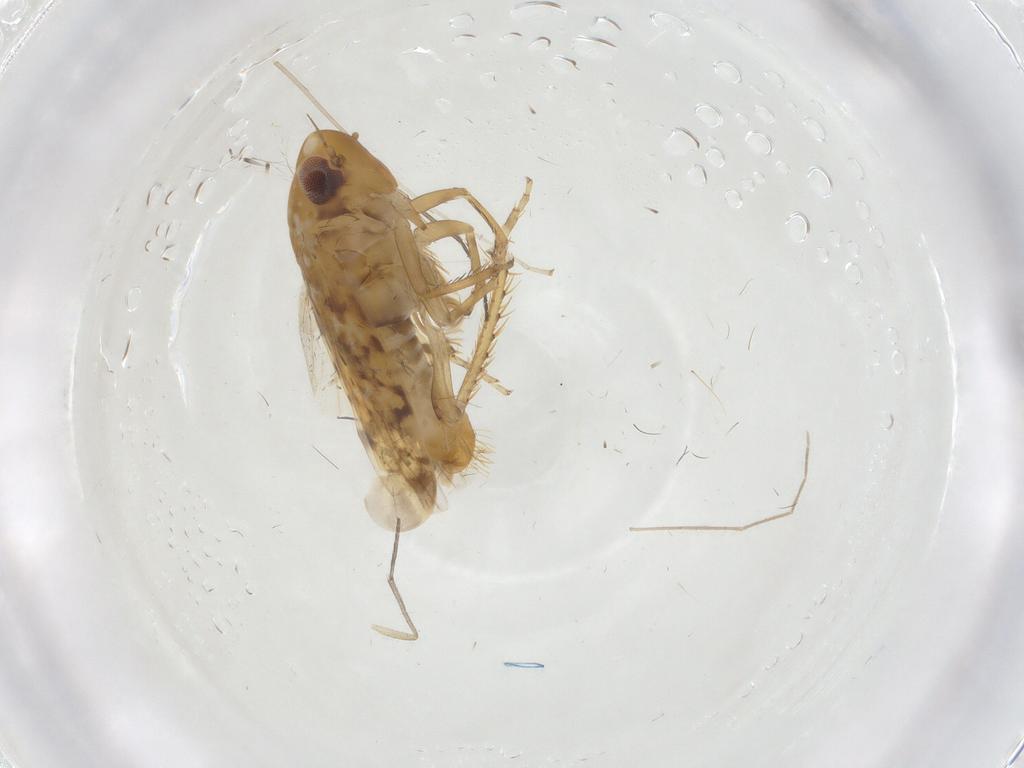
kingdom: Animalia
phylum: Arthropoda
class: Insecta
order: Hemiptera
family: Cicadellidae
